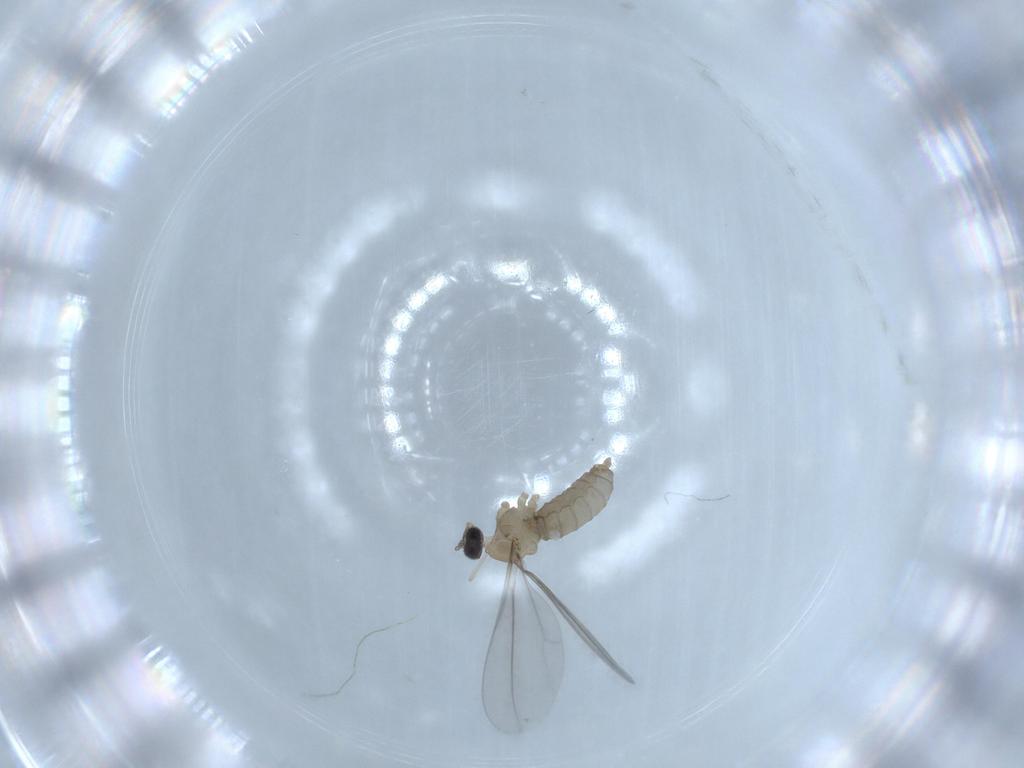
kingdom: Animalia
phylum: Arthropoda
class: Insecta
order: Diptera
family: Cecidomyiidae
